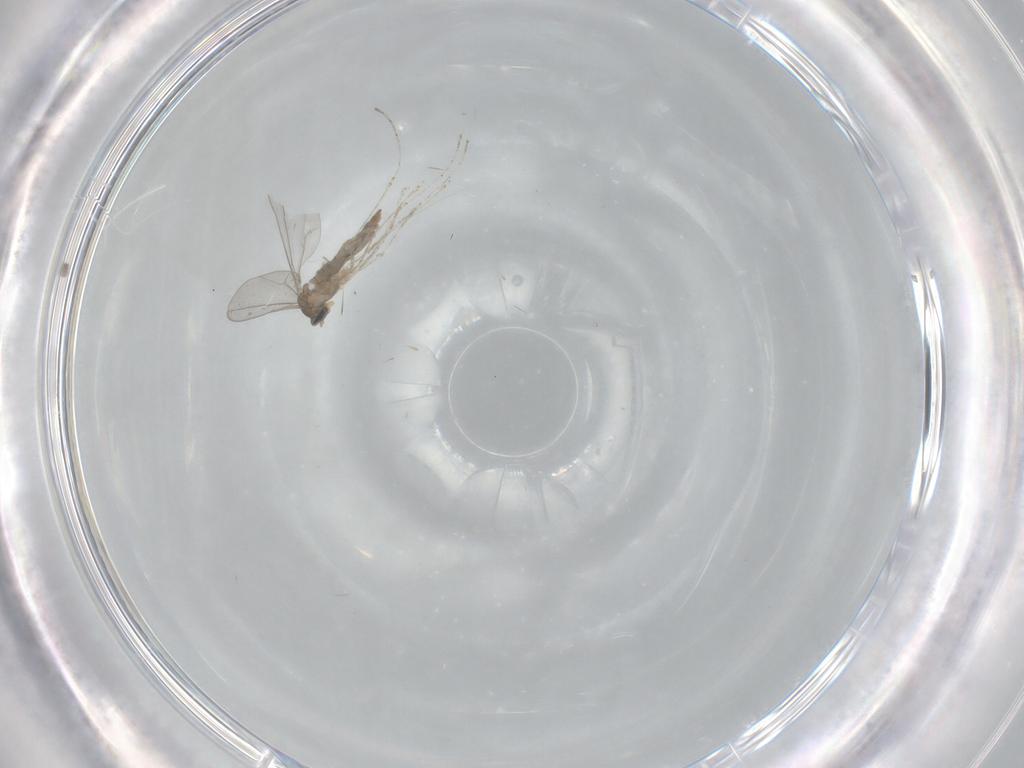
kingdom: Animalia
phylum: Arthropoda
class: Insecta
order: Diptera
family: Cecidomyiidae
